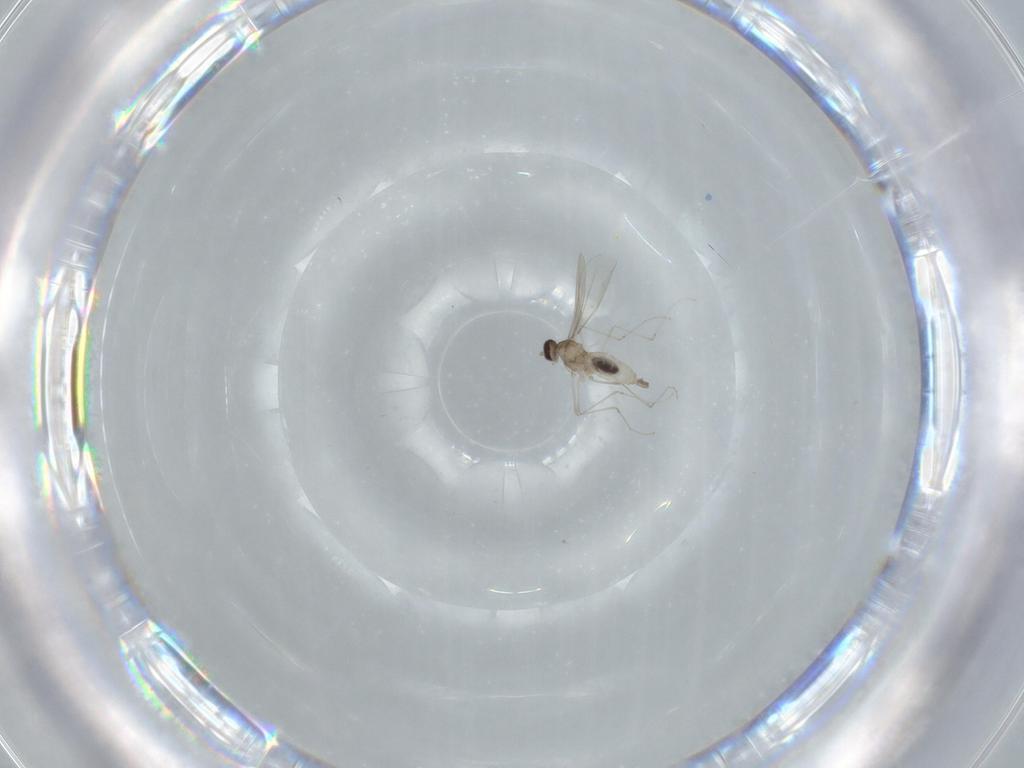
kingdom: Animalia
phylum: Arthropoda
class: Insecta
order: Diptera
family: Cecidomyiidae
